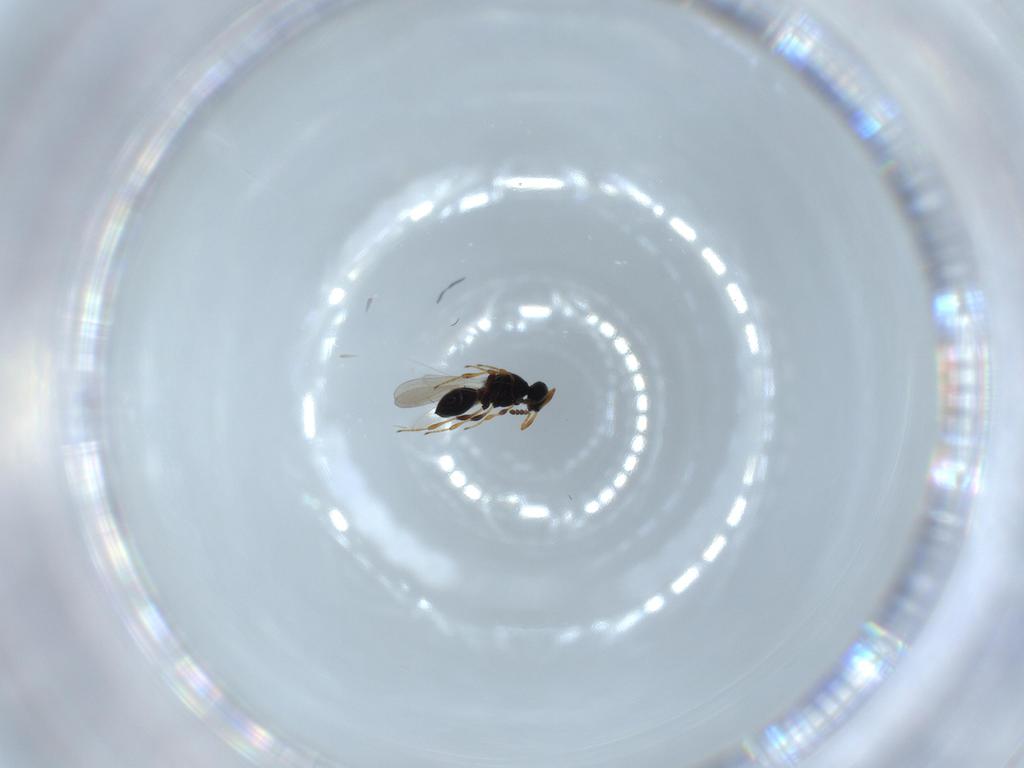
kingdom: Animalia
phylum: Arthropoda
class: Insecta
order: Hymenoptera
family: Platygastridae
